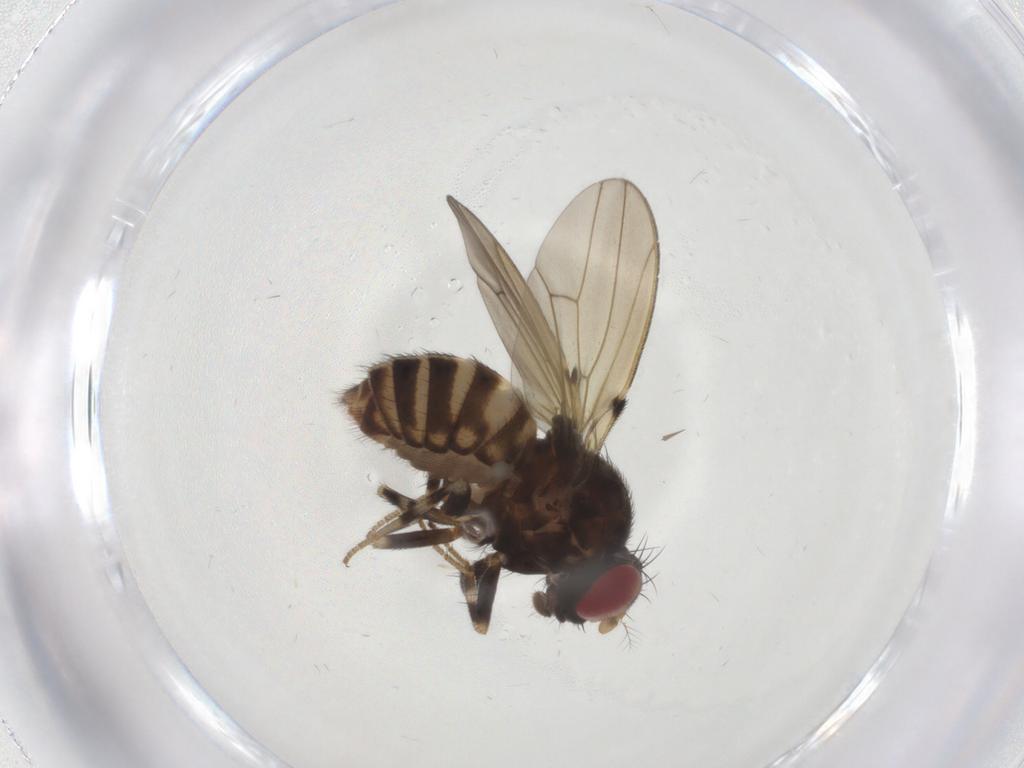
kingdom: Animalia
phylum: Arthropoda
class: Insecta
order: Diptera
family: Drosophilidae
